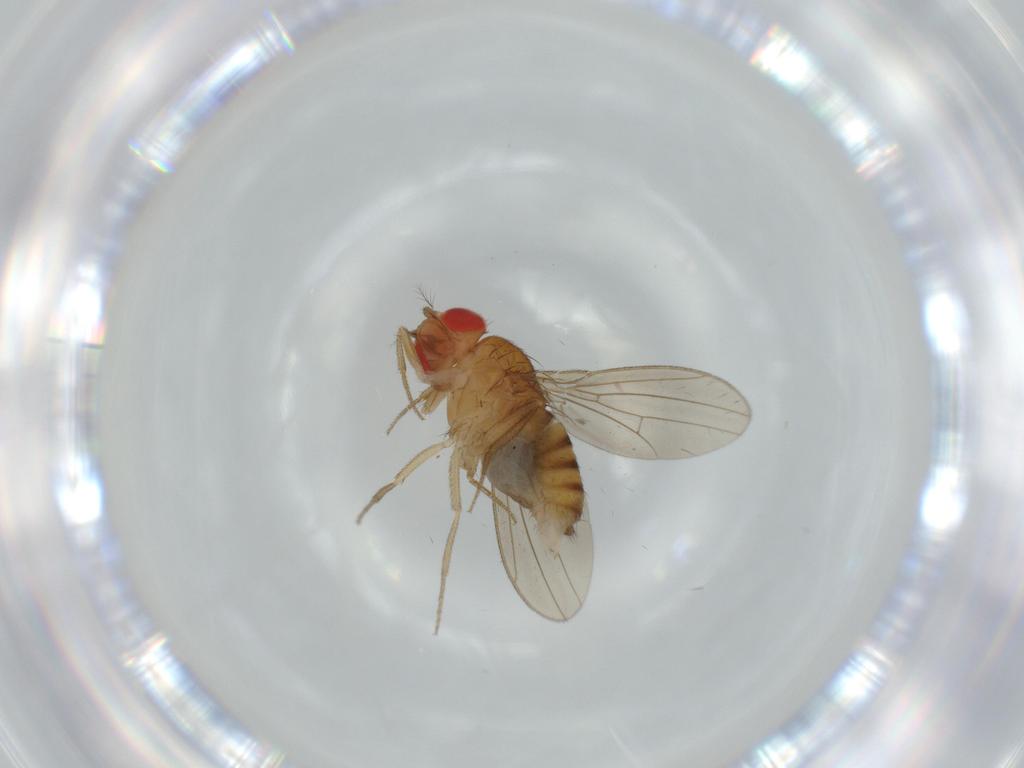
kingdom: Animalia
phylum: Arthropoda
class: Insecta
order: Diptera
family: Drosophilidae
